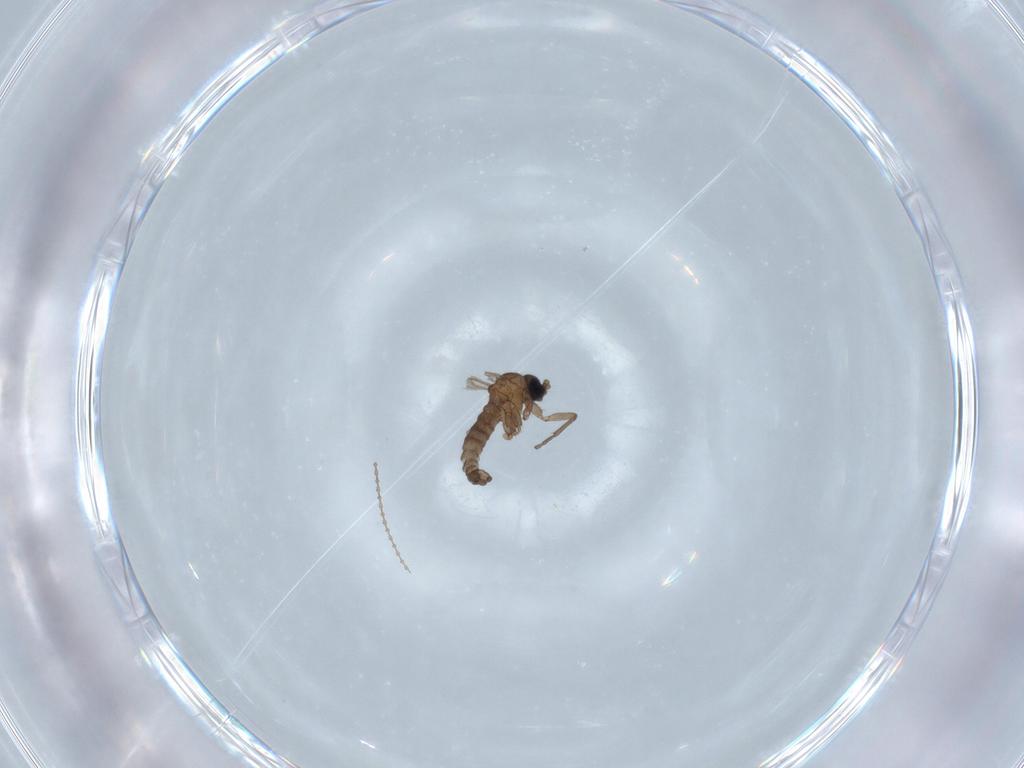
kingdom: Animalia
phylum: Arthropoda
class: Insecta
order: Diptera
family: Sciaridae
